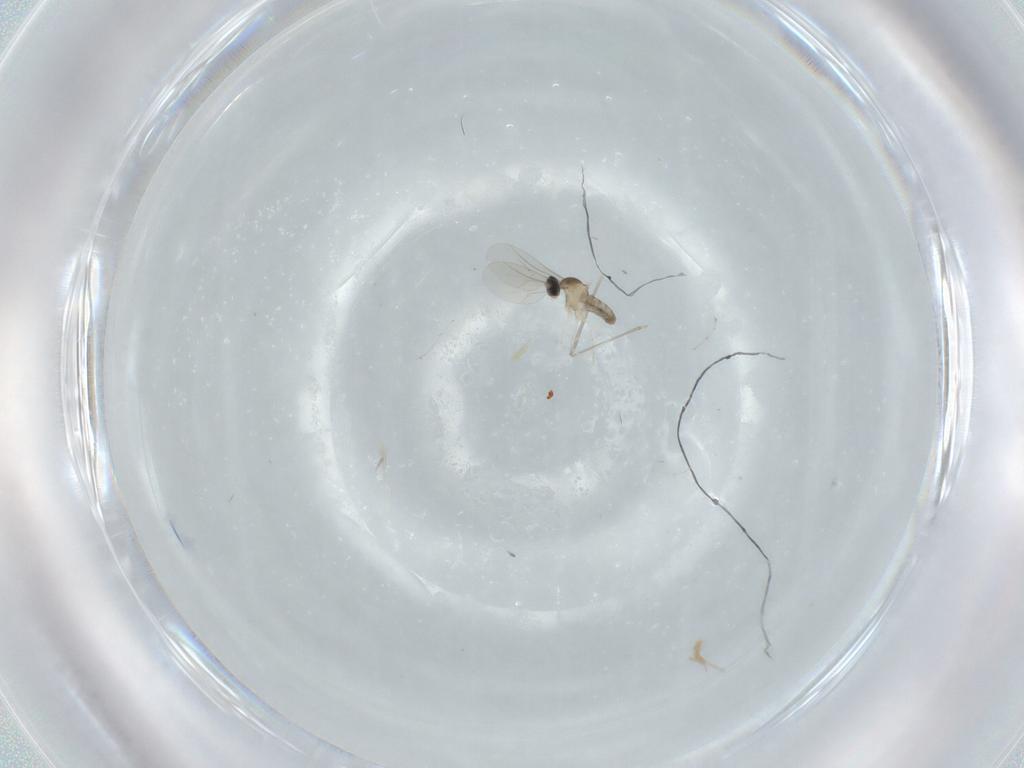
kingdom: Animalia
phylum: Arthropoda
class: Insecta
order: Diptera
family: Cecidomyiidae
